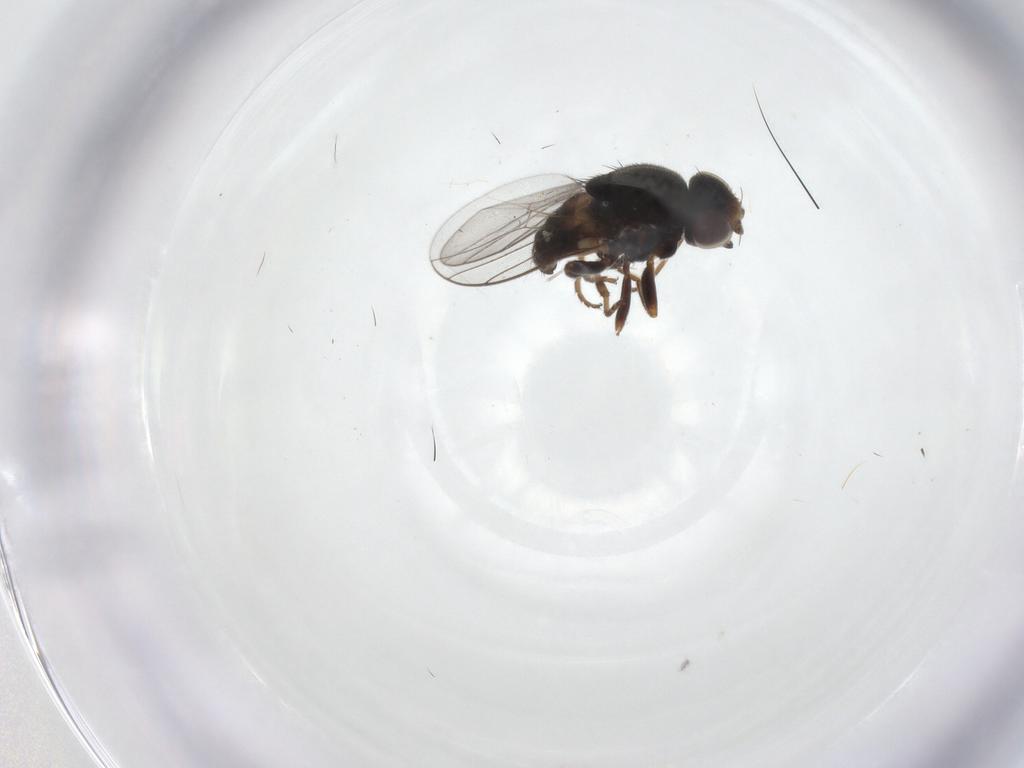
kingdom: Animalia
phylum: Arthropoda
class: Insecta
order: Diptera
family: Chloropidae
